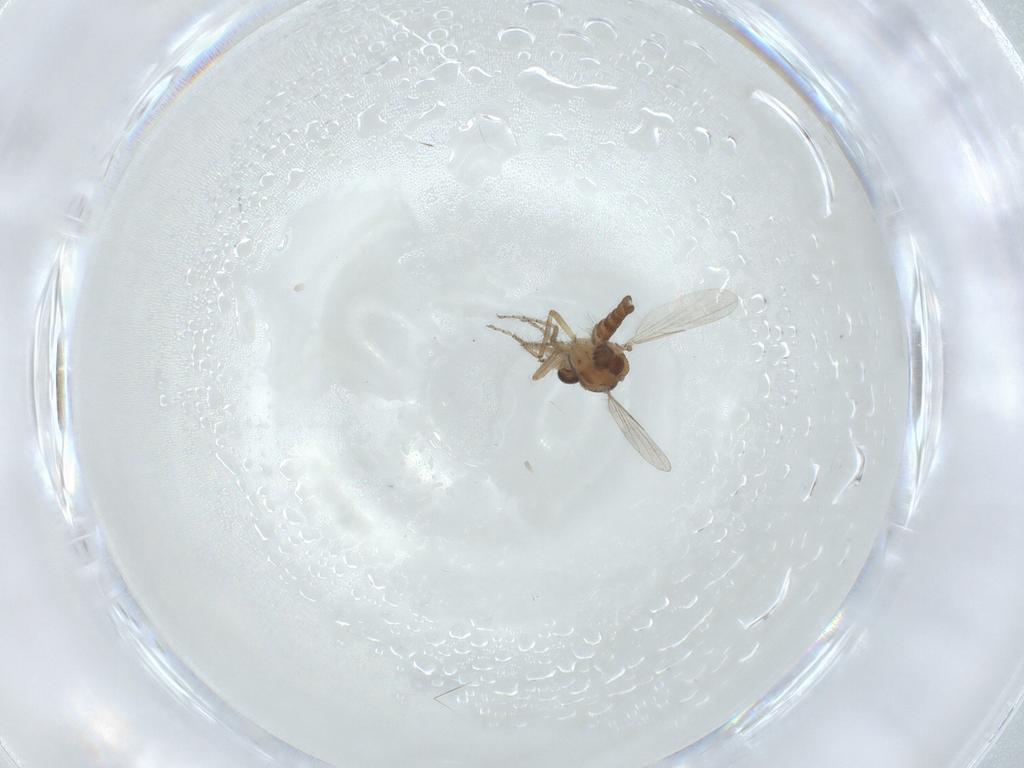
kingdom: Animalia
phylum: Arthropoda
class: Insecta
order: Diptera
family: Ceratopogonidae
